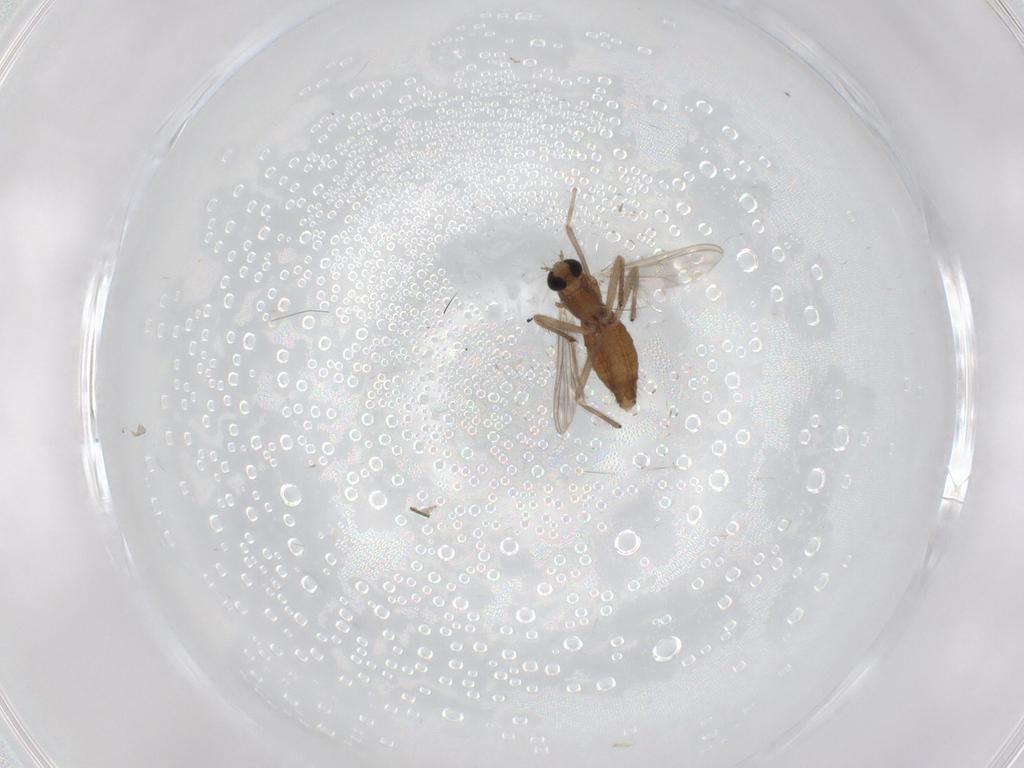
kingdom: Animalia
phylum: Arthropoda
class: Insecta
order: Diptera
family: Chironomidae
